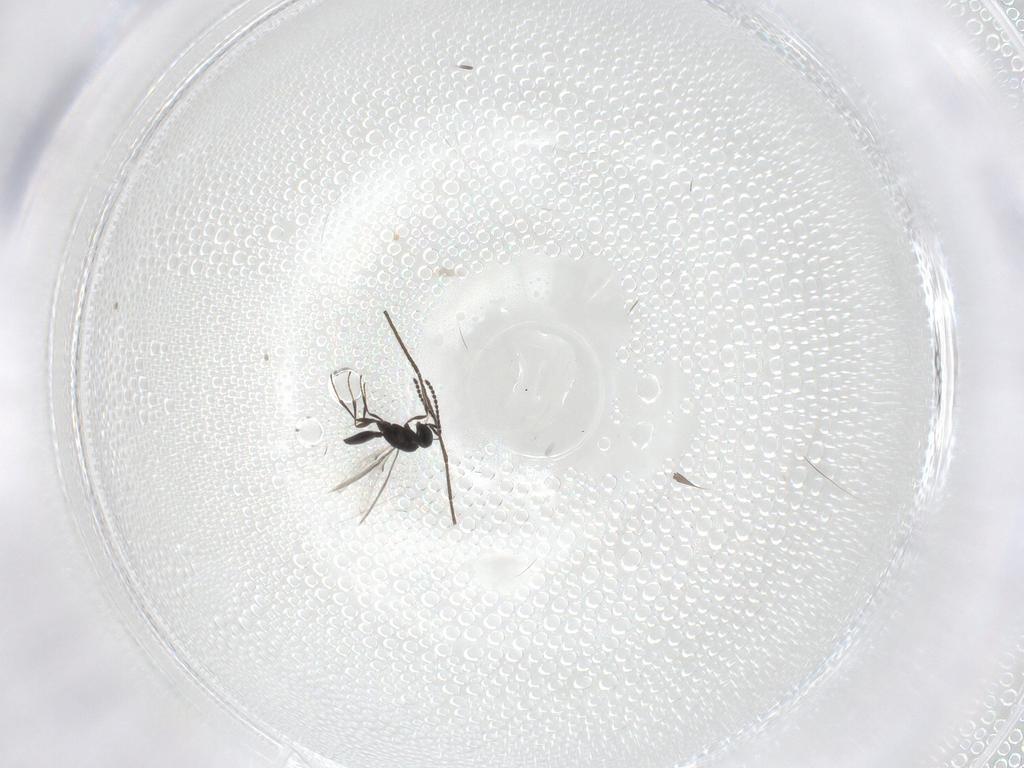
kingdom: Animalia
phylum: Arthropoda
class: Insecta
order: Hymenoptera
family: Scelionidae
